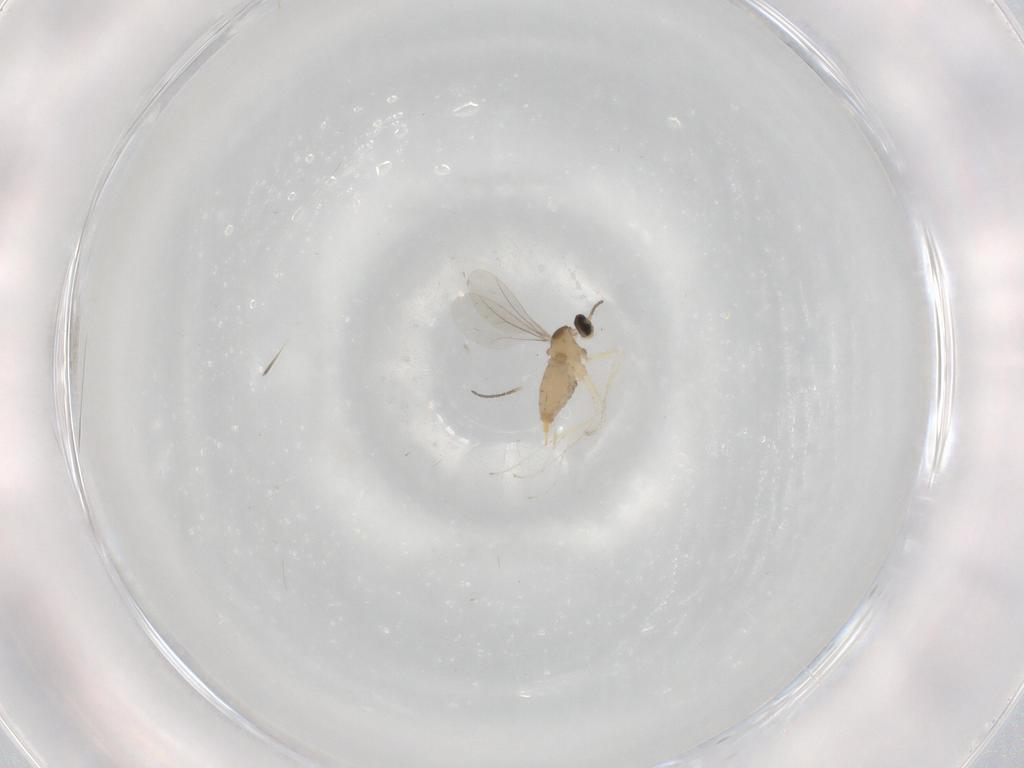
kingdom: Animalia
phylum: Arthropoda
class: Insecta
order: Diptera
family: Cecidomyiidae
